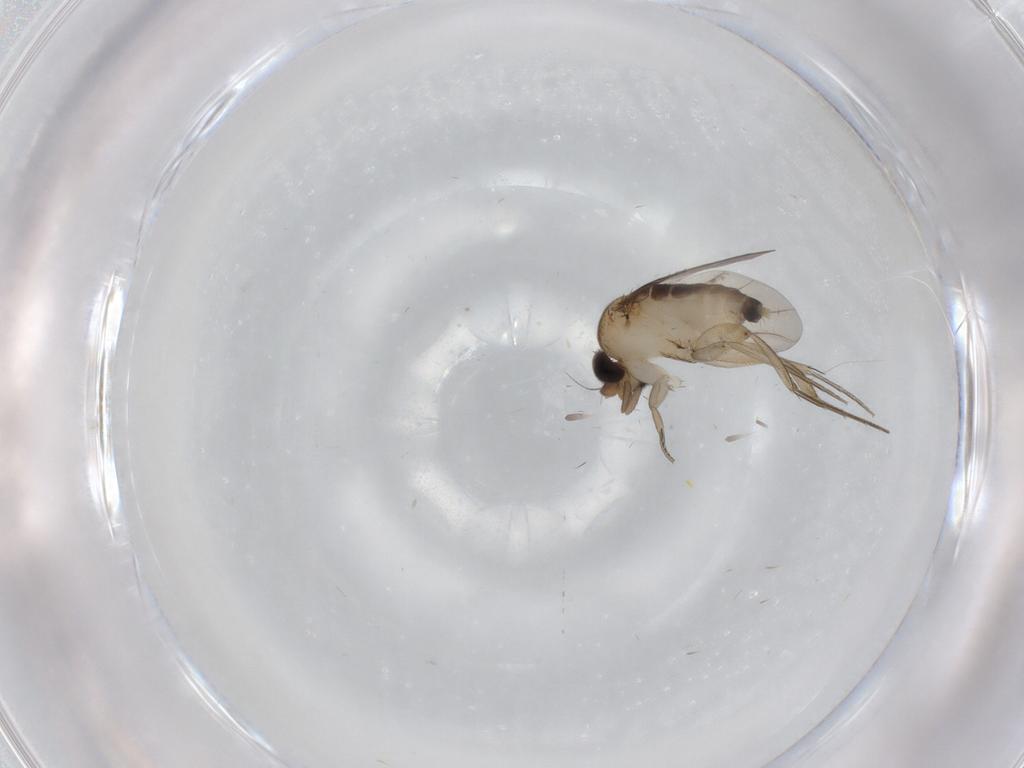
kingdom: Animalia
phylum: Arthropoda
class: Insecta
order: Diptera
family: Phoridae
